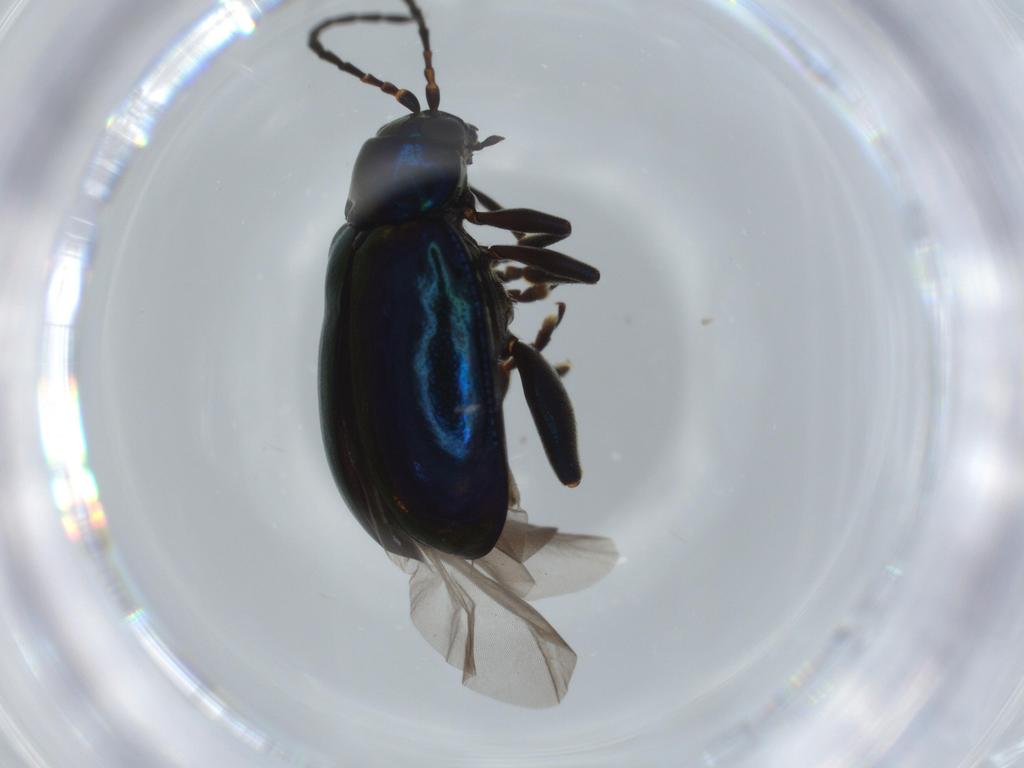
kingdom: Animalia
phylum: Arthropoda
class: Insecta
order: Coleoptera
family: Chrysomelidae
